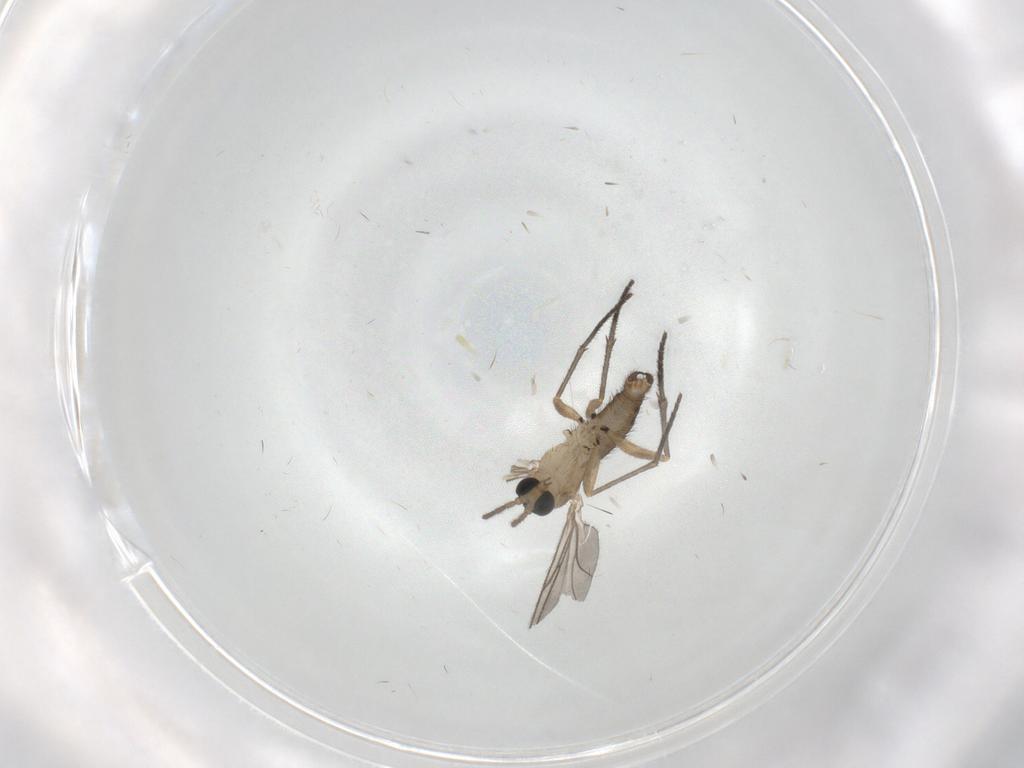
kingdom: Animalia
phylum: Arthropoda
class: Insecta
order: Diptera
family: Sciaridae
